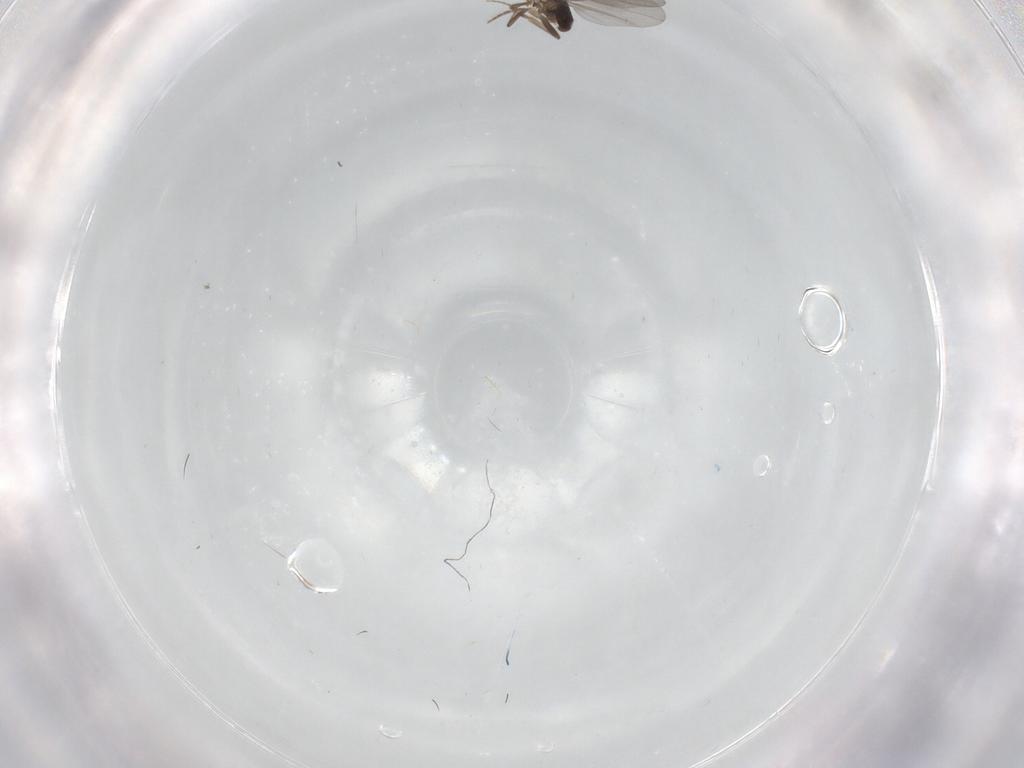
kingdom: Animalia
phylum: Arthropoda
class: Insecta
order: Diptera
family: Tabanidae
